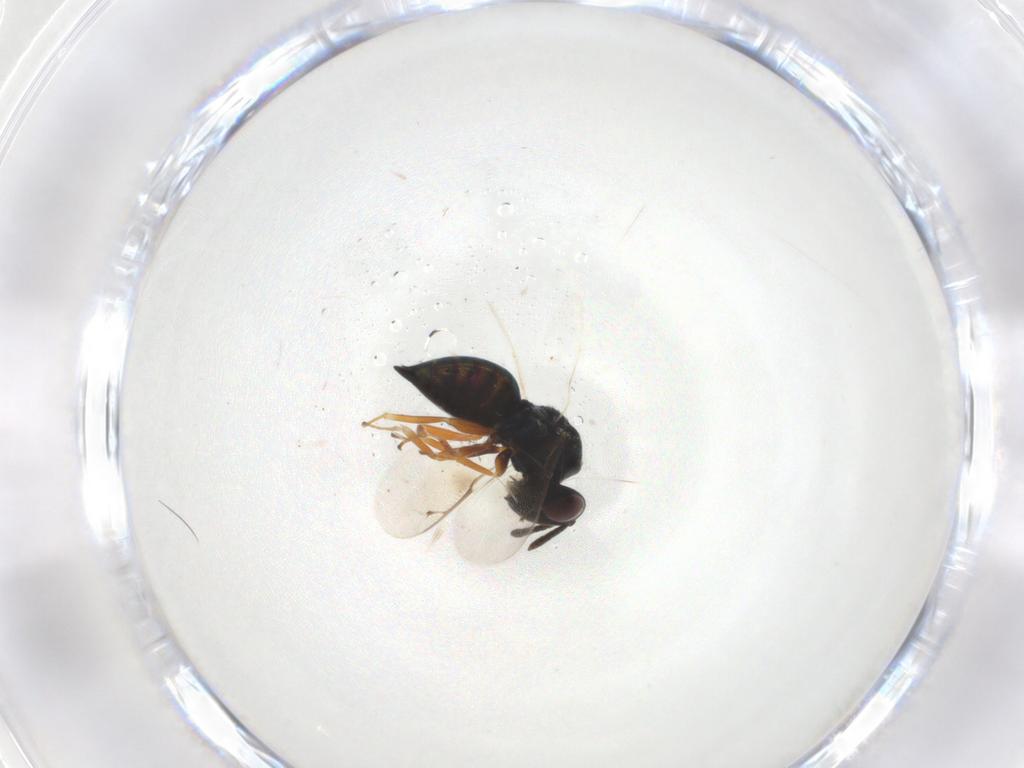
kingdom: Animalia
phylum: Arthropoda
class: Insecta
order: Hymenoptera
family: Pteromalidae
